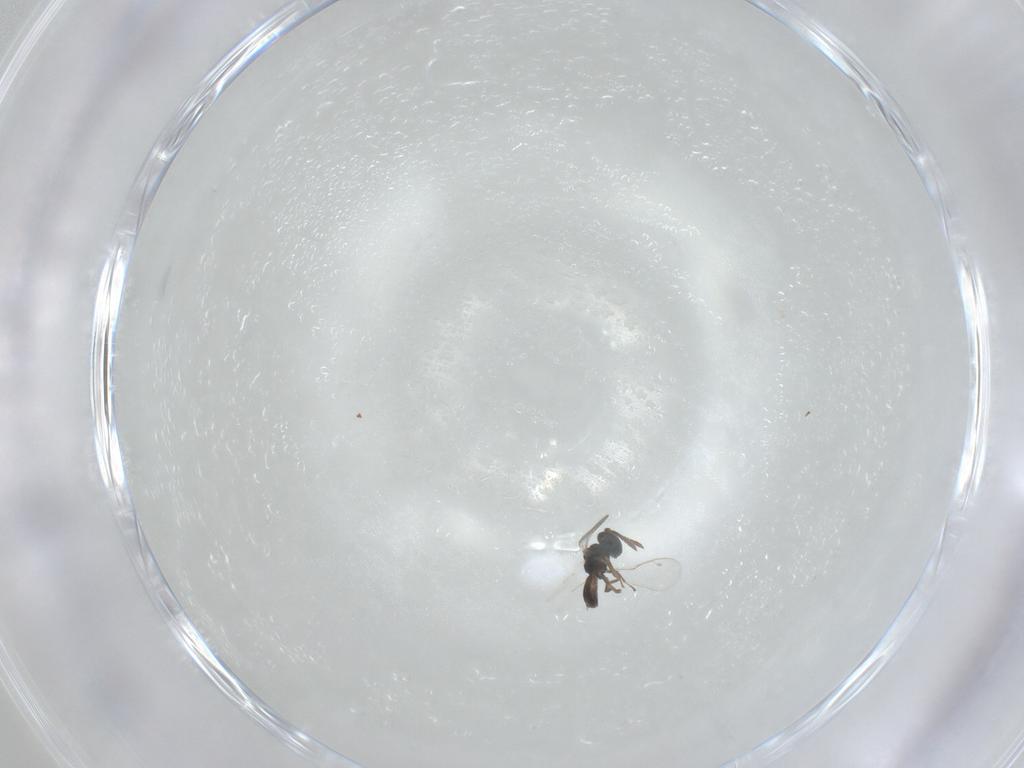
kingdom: Animalia
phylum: Arthropoda
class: Insecta
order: Hymenoptera
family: Pteromalidae
